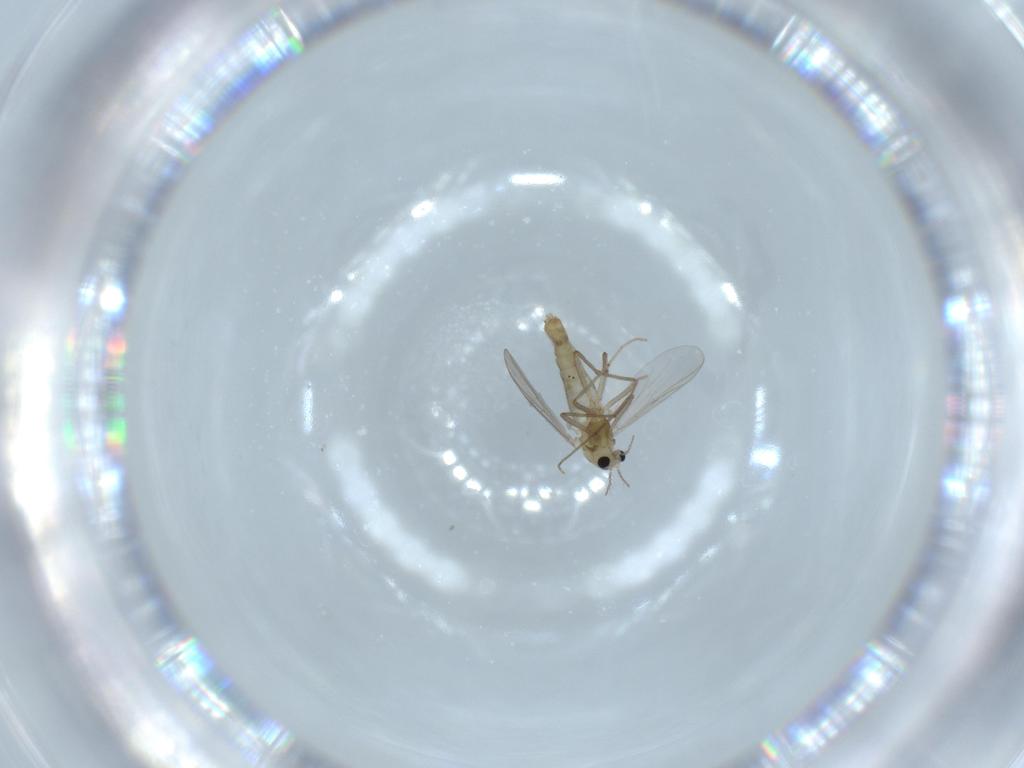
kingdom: Animalia
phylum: Arthropoda
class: Insecta
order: Diptera
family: Chironomidae
